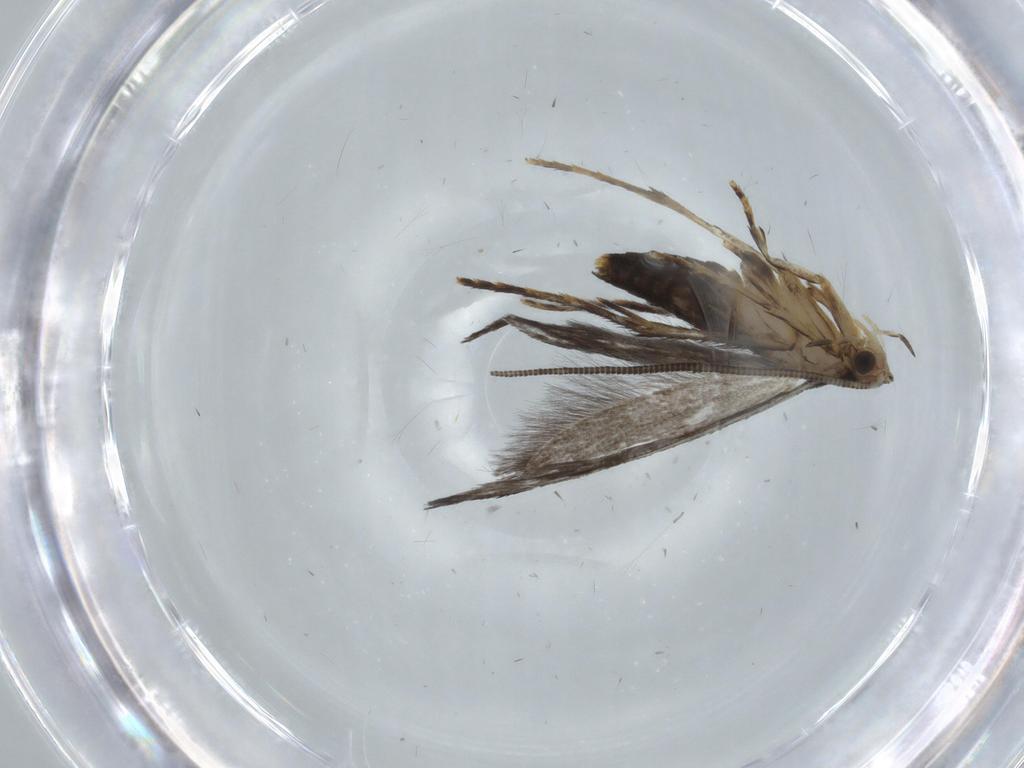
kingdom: Animalia
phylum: Arthropoda
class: Insecta
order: Lepidoptera
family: Tineidae
